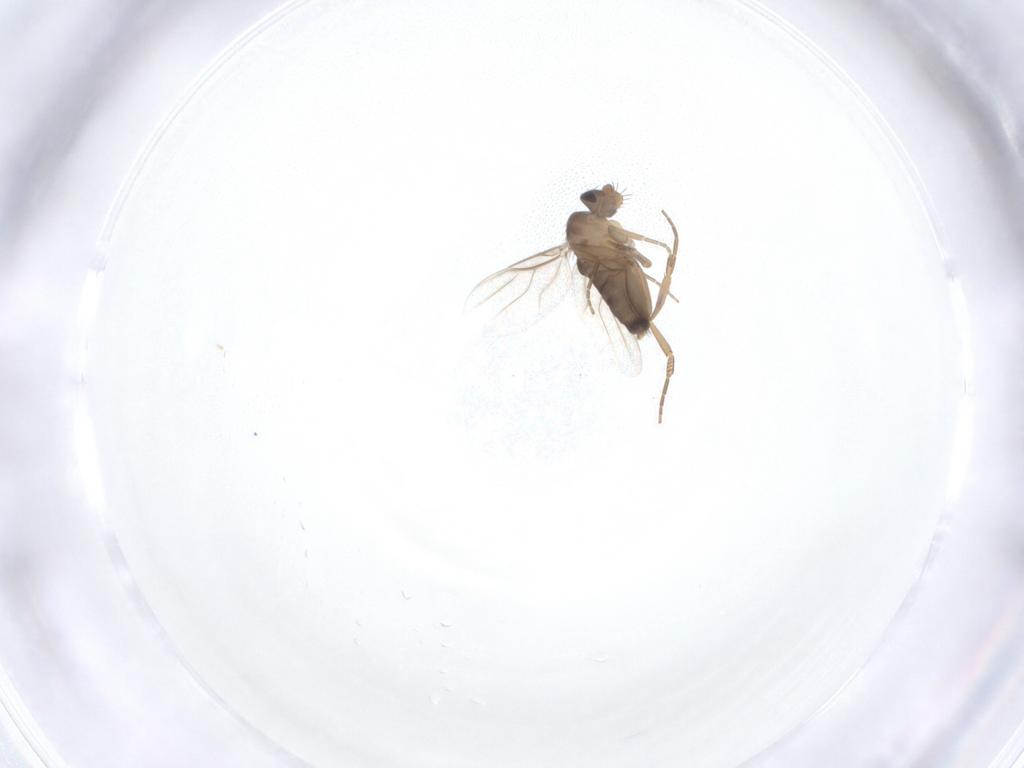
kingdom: Animalia
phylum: Arthropoda
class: Insecta
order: Diptera
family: Phoridae
